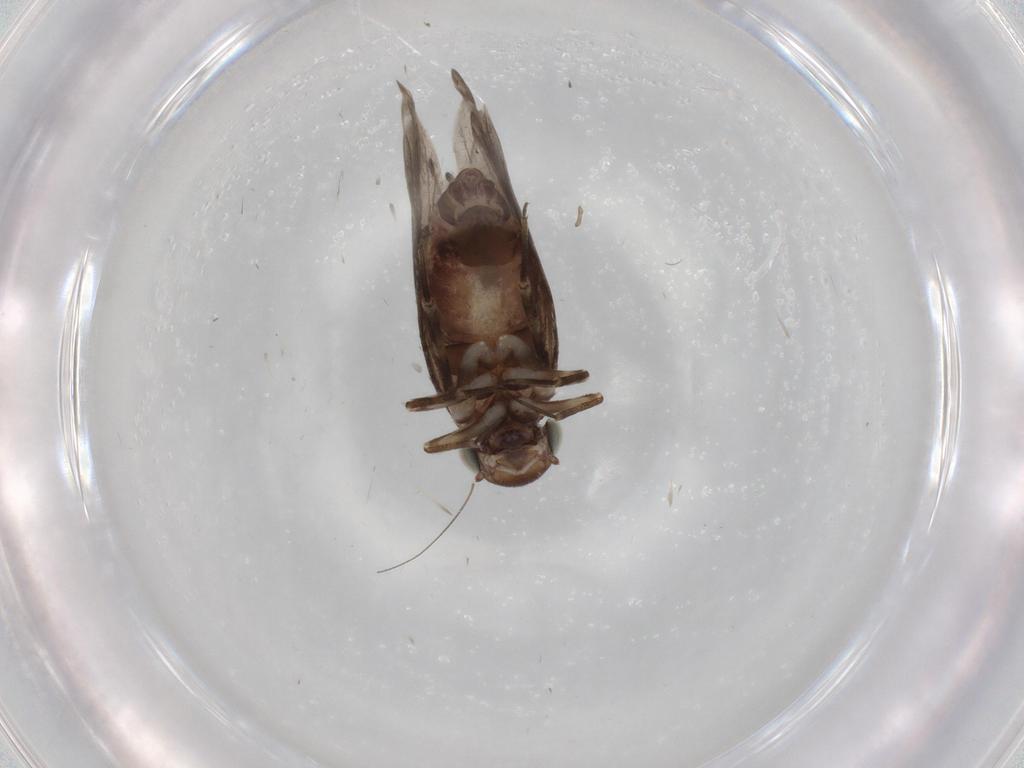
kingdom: Animalia
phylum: Arthropoda
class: Insecta
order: Psocodea
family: Amphientomidae
